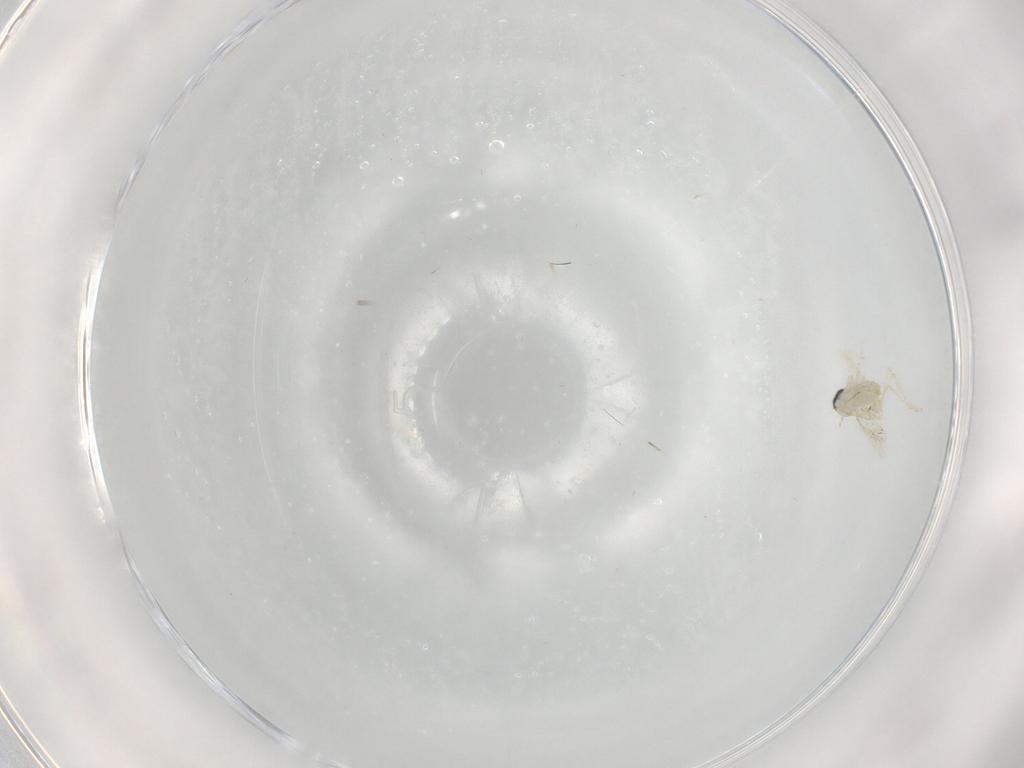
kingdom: Animalia
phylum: Arthropoda
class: Insecta
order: Diptera
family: Cecidomyiidae
